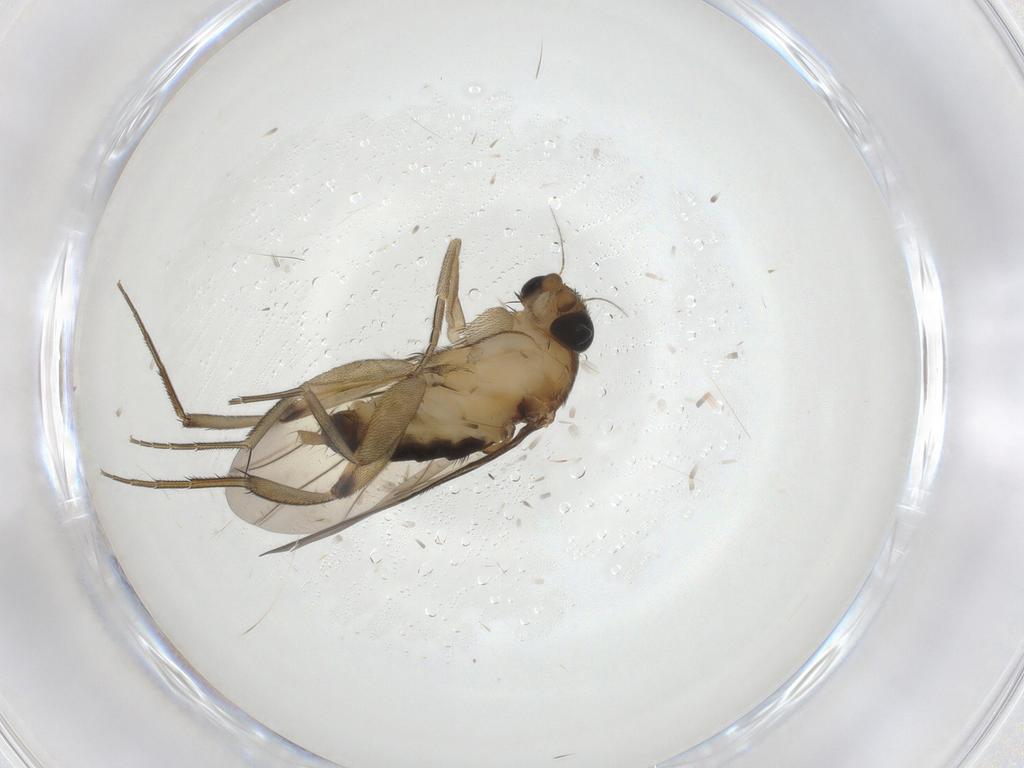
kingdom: Animalia
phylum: Arthropoda
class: Insecta
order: Diptera
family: Phoridae
